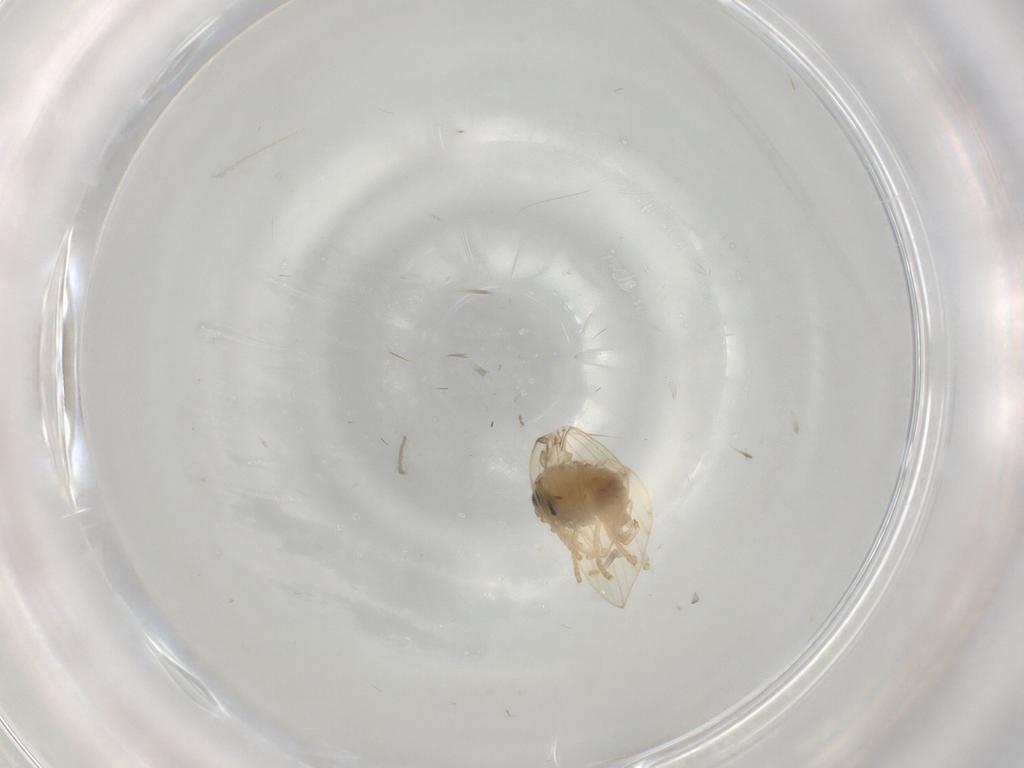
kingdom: Animalia
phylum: Arthropoda
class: Insecta
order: Diptera
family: Psychodidae
